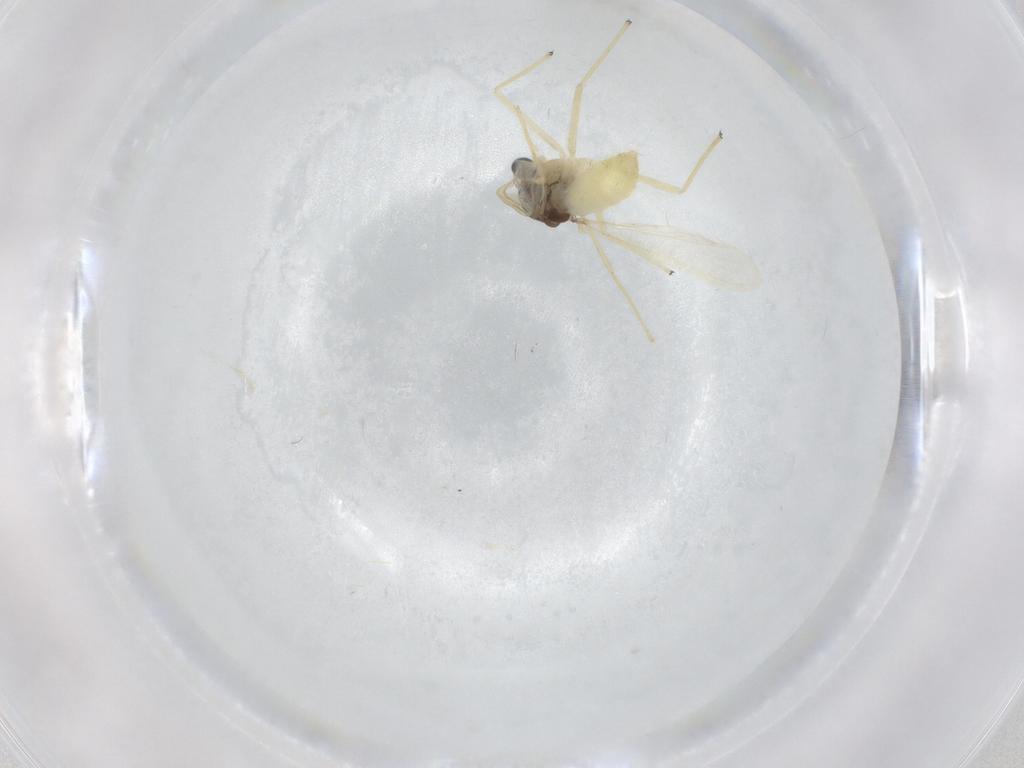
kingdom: Animalia
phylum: Arthropoda
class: Insecta
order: Diptera
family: Chironomidae
